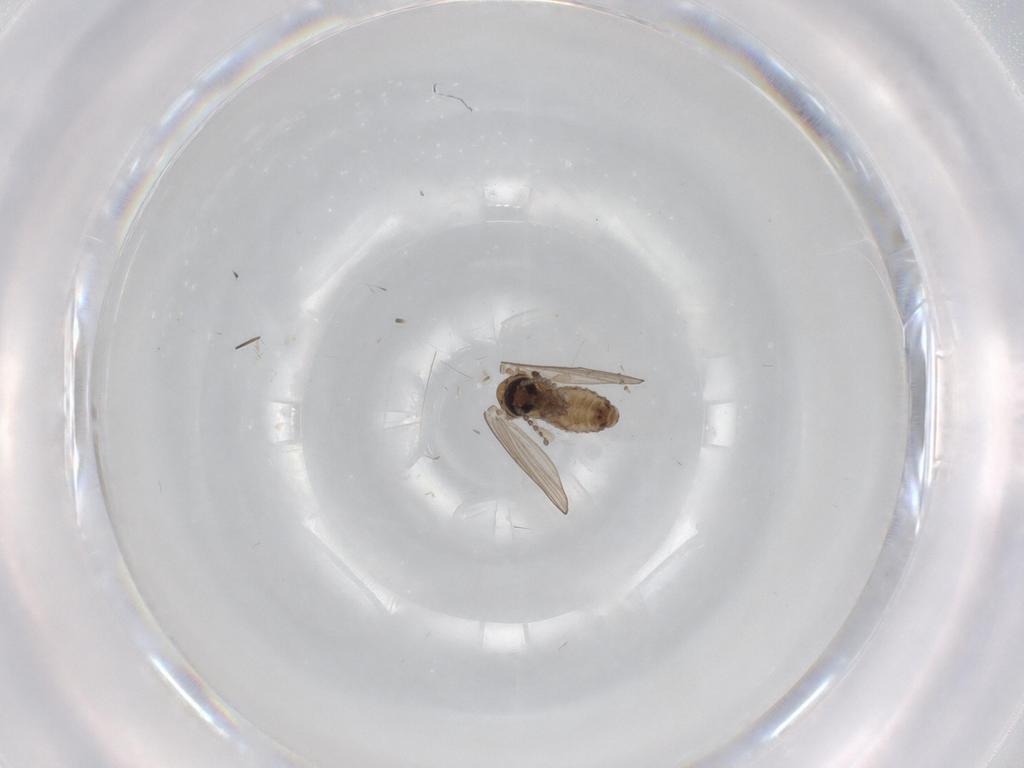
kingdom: Animalia
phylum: Arthropoda
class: Insecta
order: Diptera
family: Psychodidae
